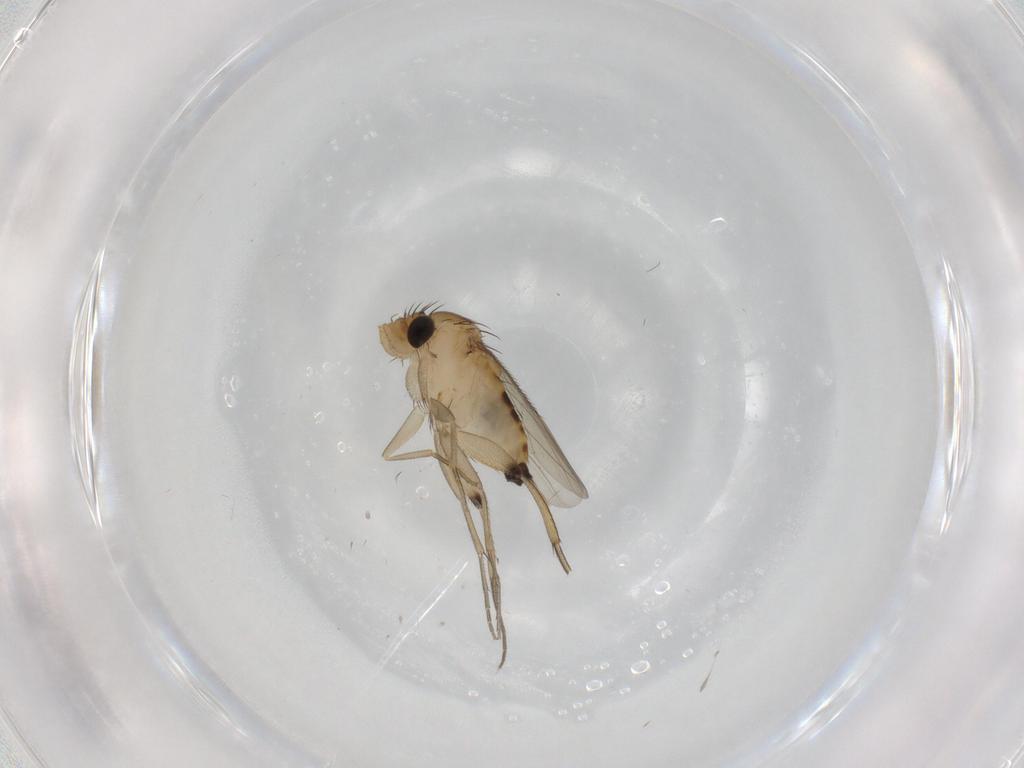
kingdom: Animalia
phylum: Arthropoda
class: Insecta
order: Diptera
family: Phoridae
